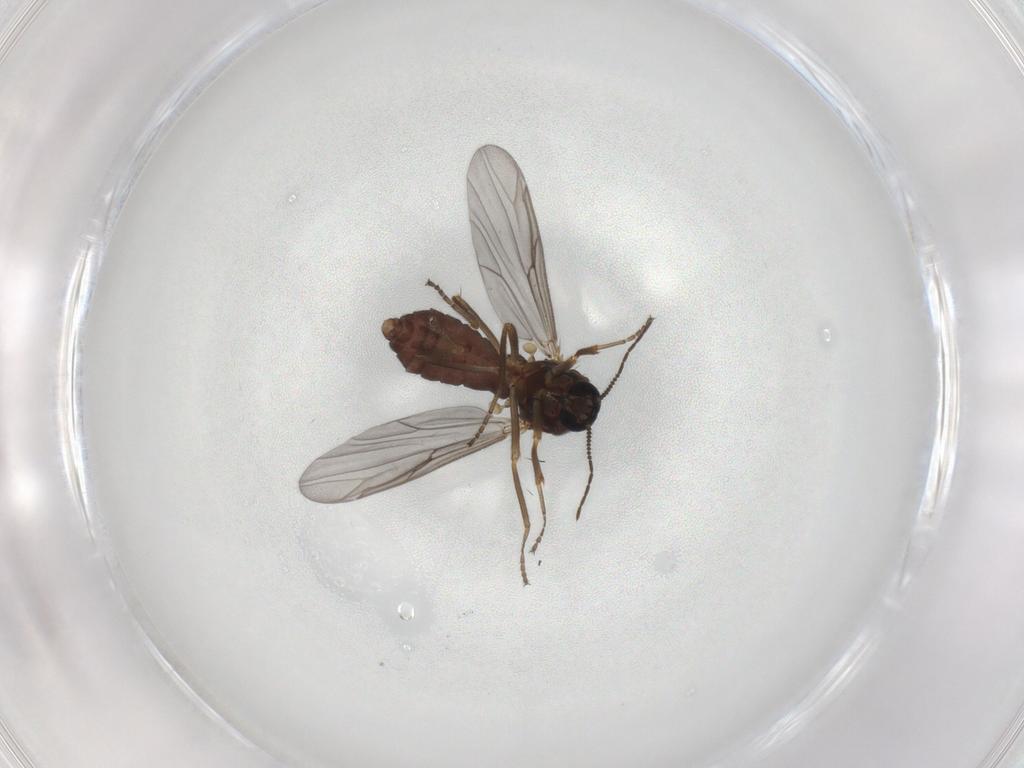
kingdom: Animalia
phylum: Arthropoda
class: Insecta
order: Diptera
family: Ceratopogonidae
